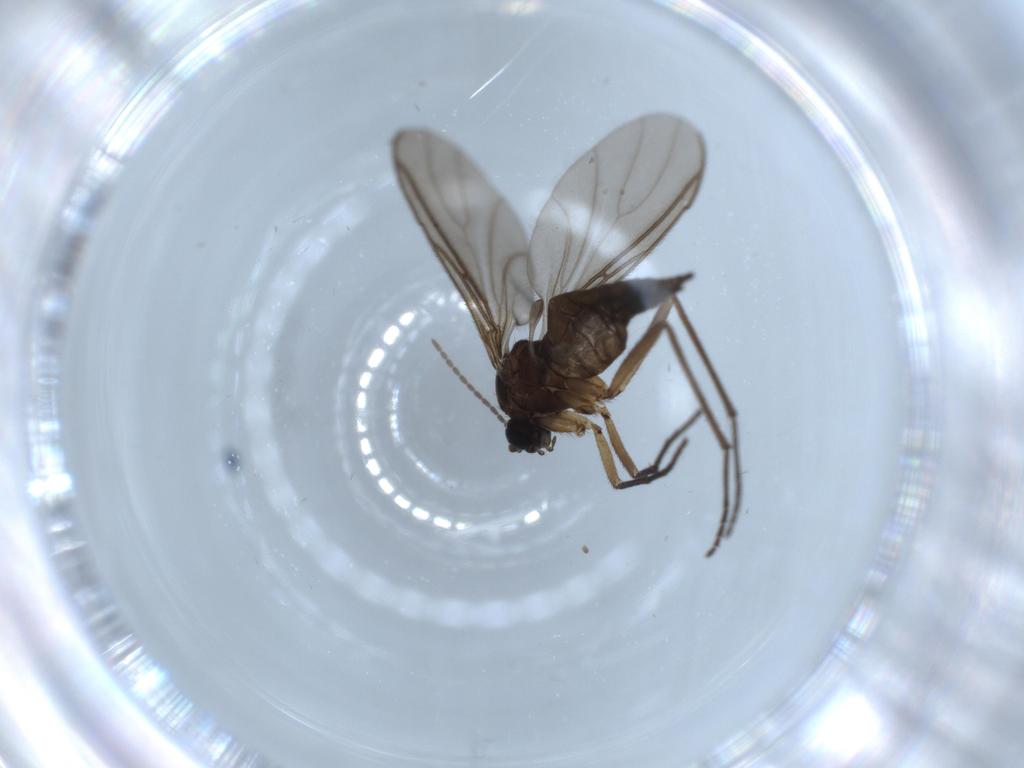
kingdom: Animalia
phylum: Arthropoda
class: Insecta
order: Diptera
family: Sciaridae
